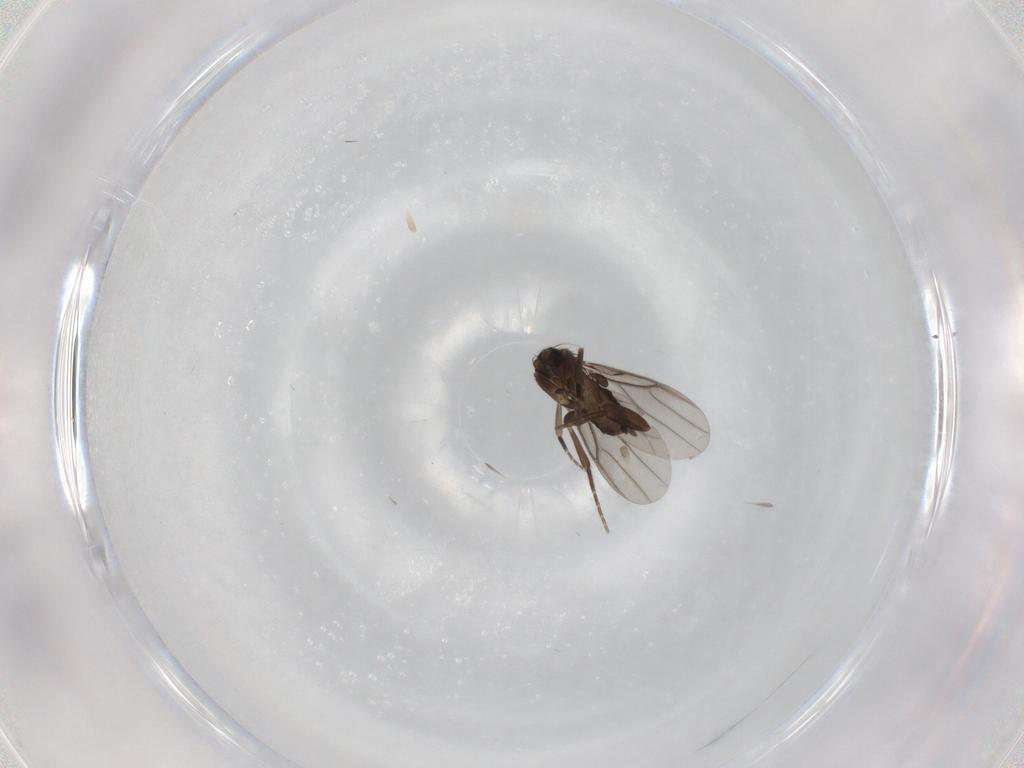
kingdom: Animalia
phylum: Arthropoda
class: Insecta
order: Diptera
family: Phoridae
